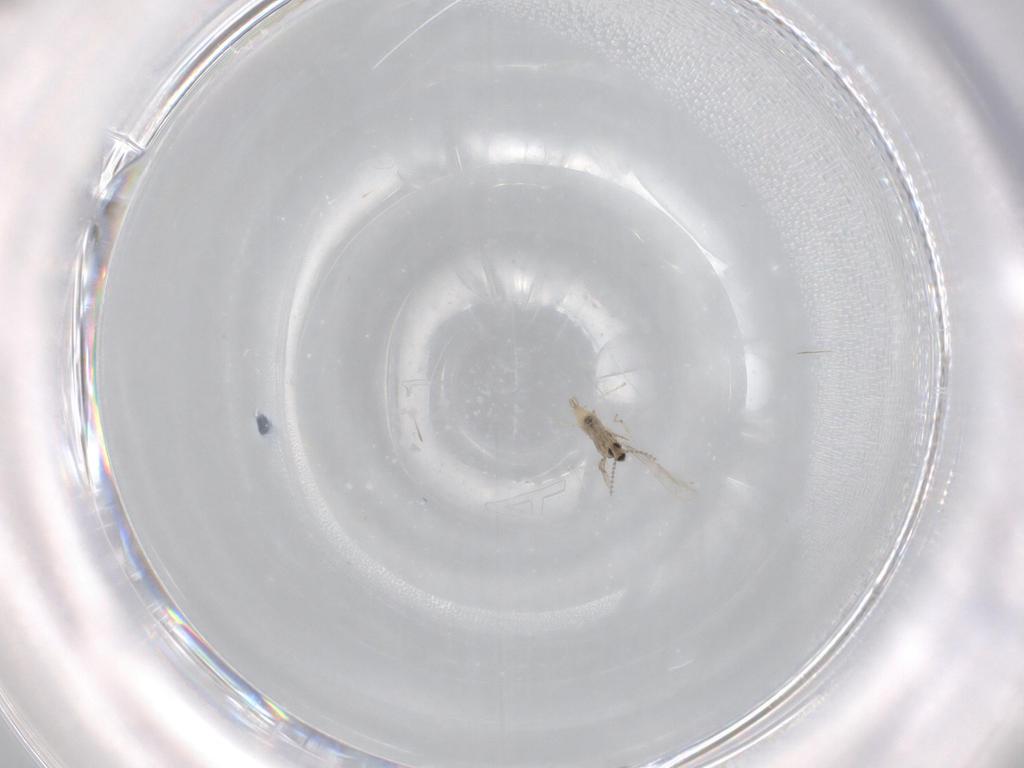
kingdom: Animalia
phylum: Arthropoda
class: Insecta
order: Diptera
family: Cecidomyiidae
